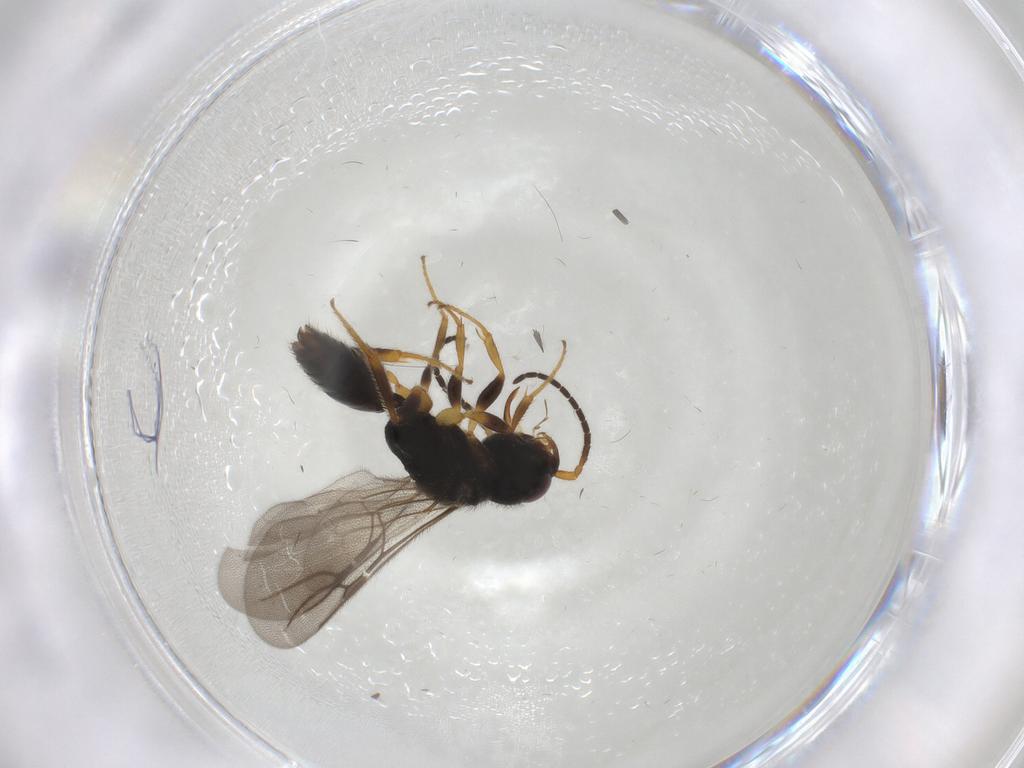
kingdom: Animalia
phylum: Arthropoda
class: Insecta
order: Hymenoptera
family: Bethylidae
